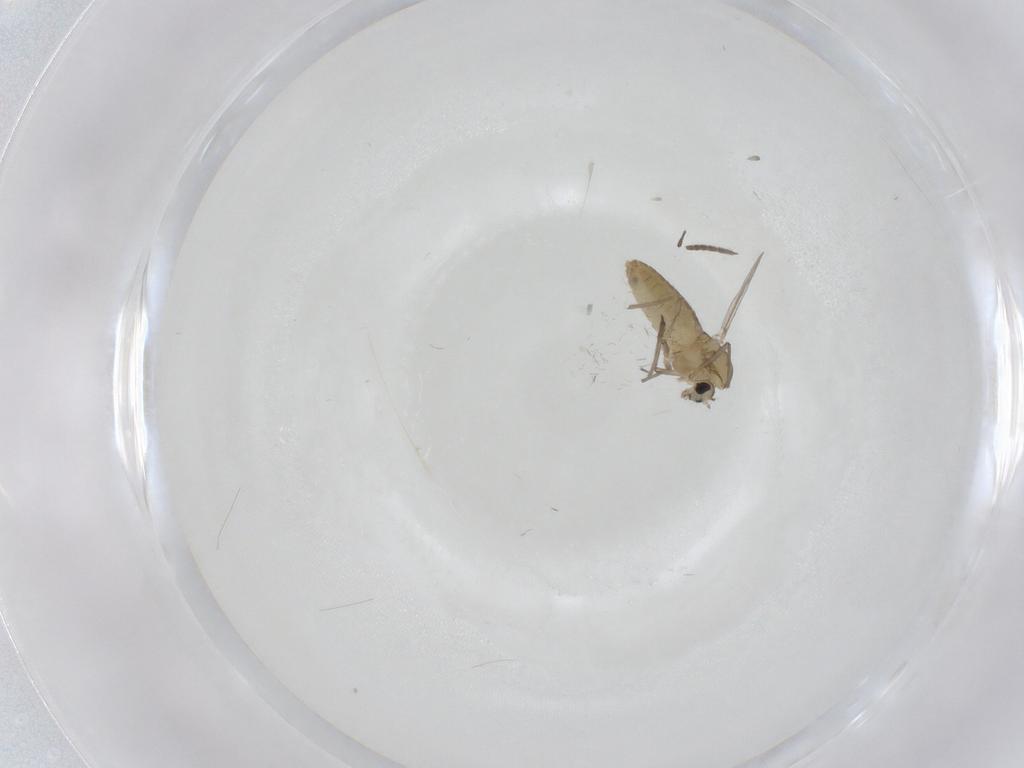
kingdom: Animalia
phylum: Arthropoda
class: Insecta
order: Diptera
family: Chironomidae
